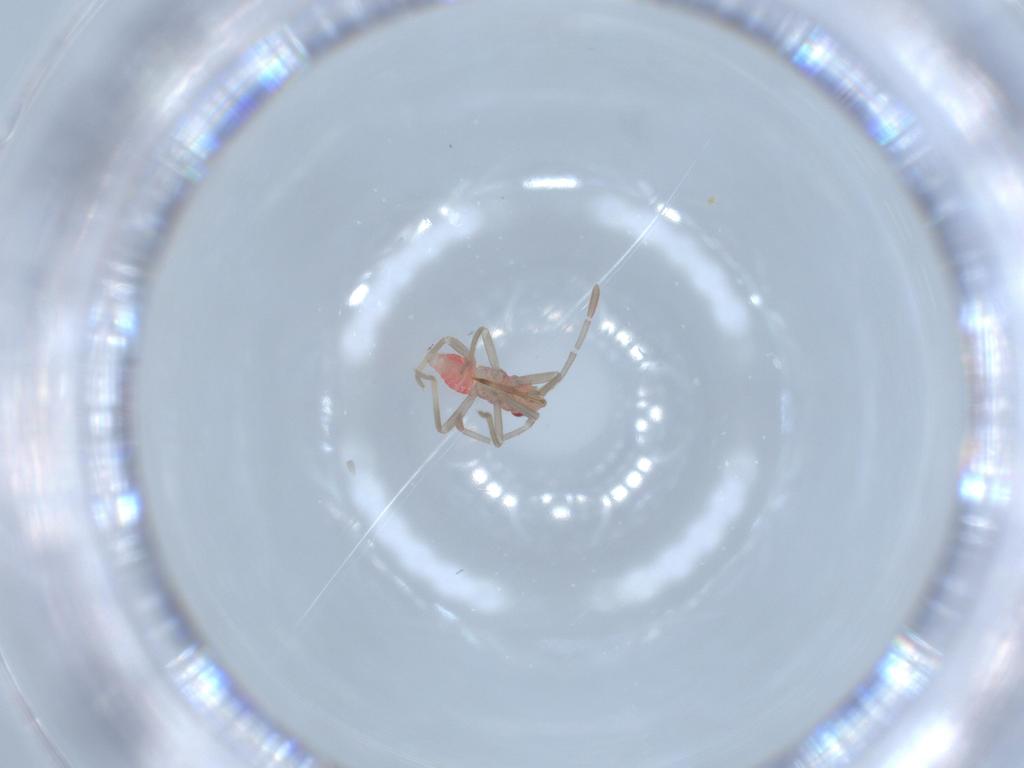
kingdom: Animalia
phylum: Arthropoda
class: Insecta
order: Hemiptera
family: Miridae
